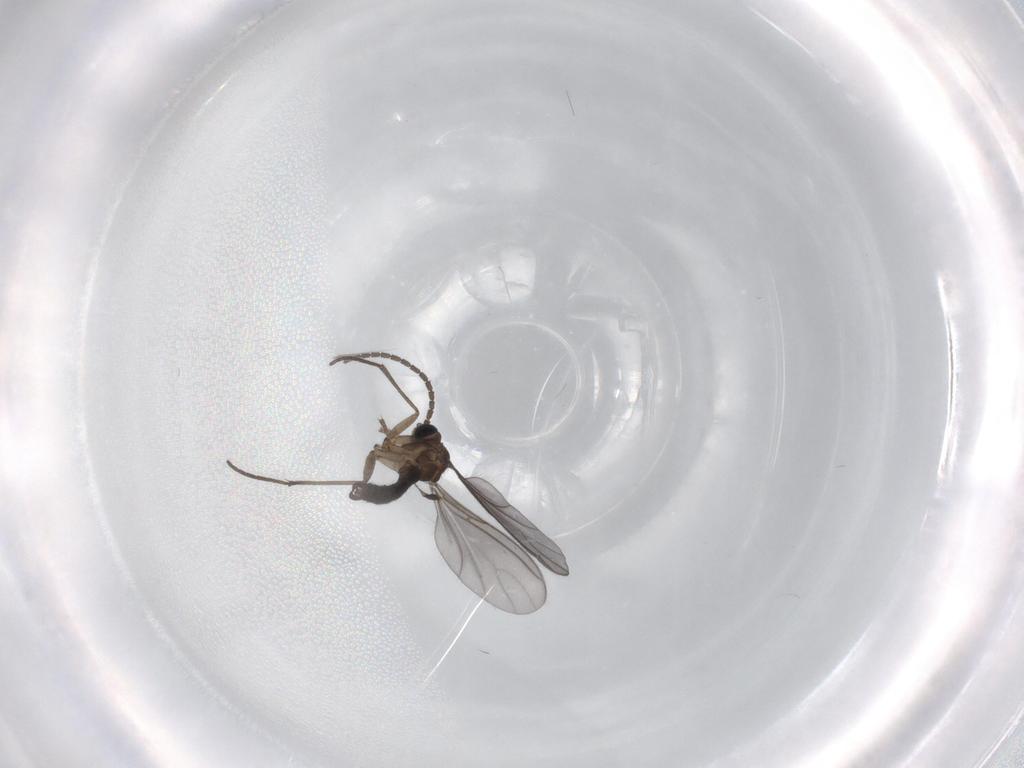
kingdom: Animalia
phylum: Arthropoda
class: Insecta
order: Diptera
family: Sciaridae
